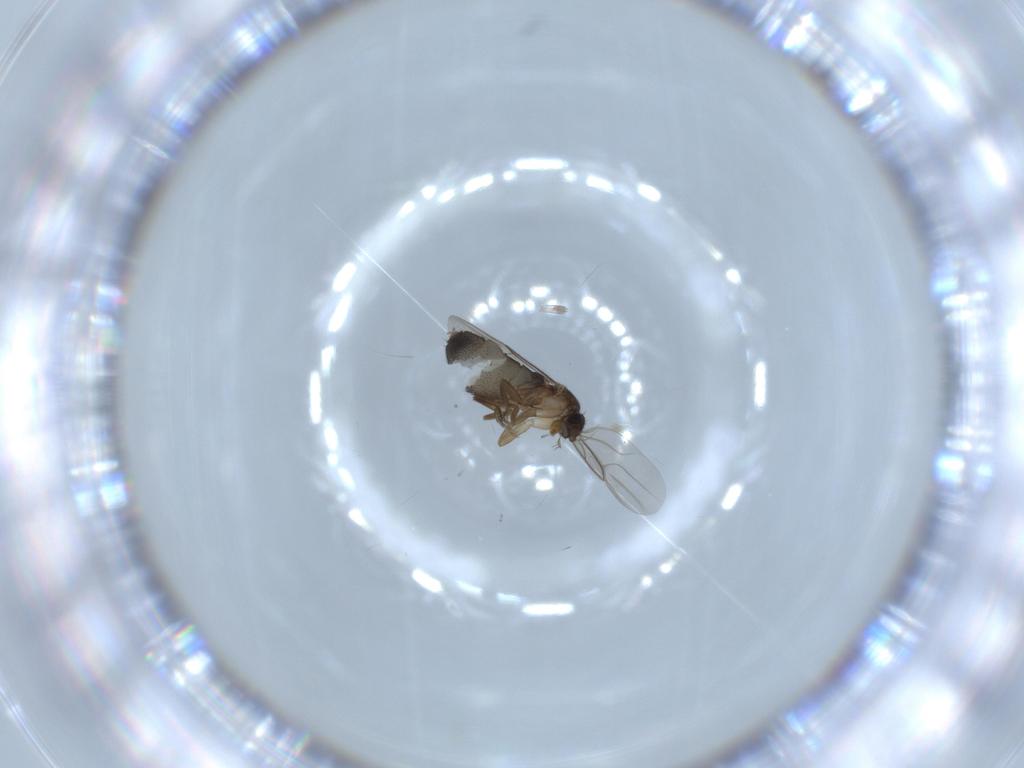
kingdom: Animalia
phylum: Arthropoda
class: Insecta
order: Diptera
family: Phoridae
